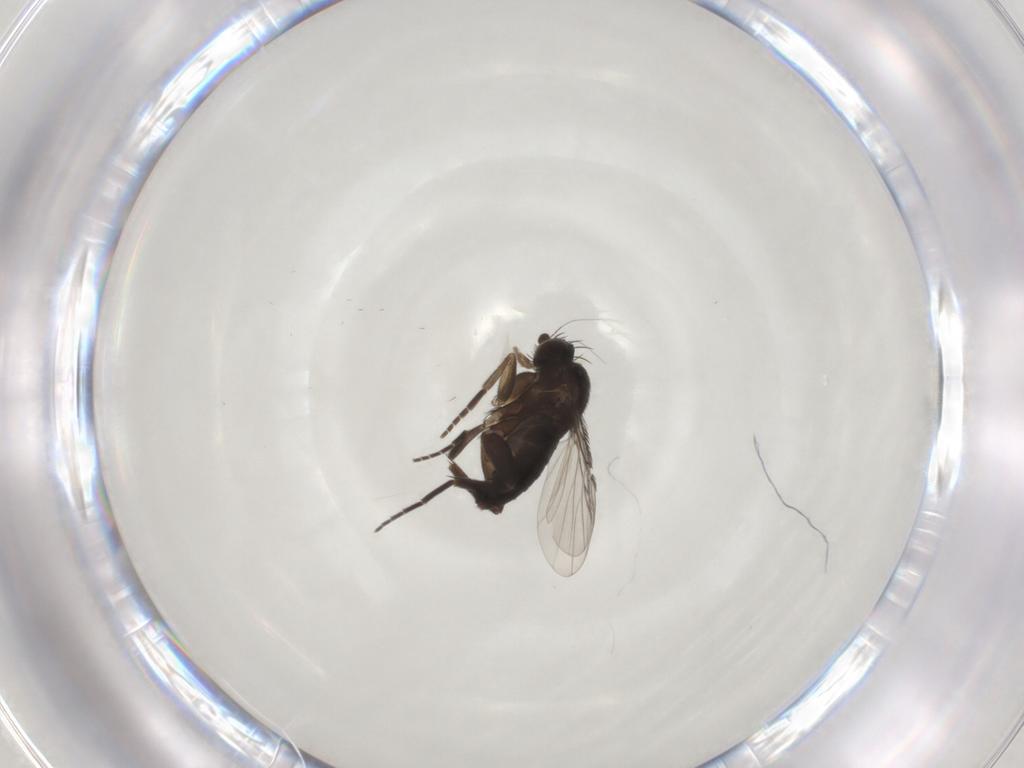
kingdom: Animalia
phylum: Arthropoda
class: Insecta
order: Diptera
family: Phoridae
